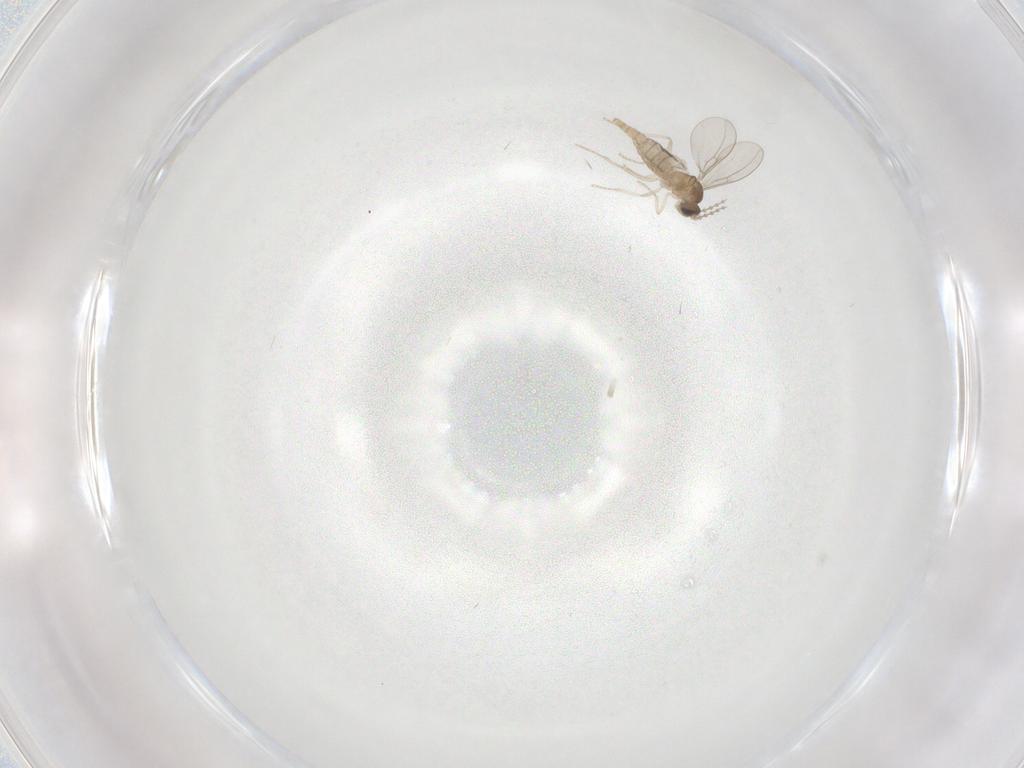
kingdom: Animalia
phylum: Arthropoda
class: Insecta
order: Diptera
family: Cecidomyiidae
